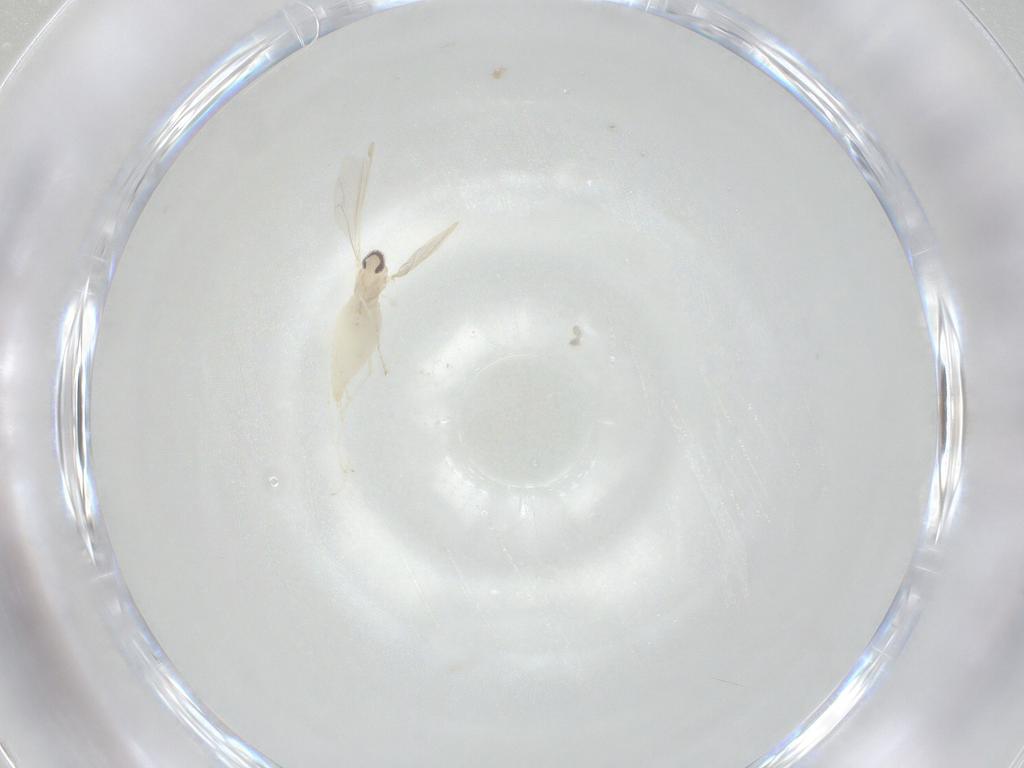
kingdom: Animalia
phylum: Arthropoda
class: Insecta
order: Diptera
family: Cecidomyiidae
